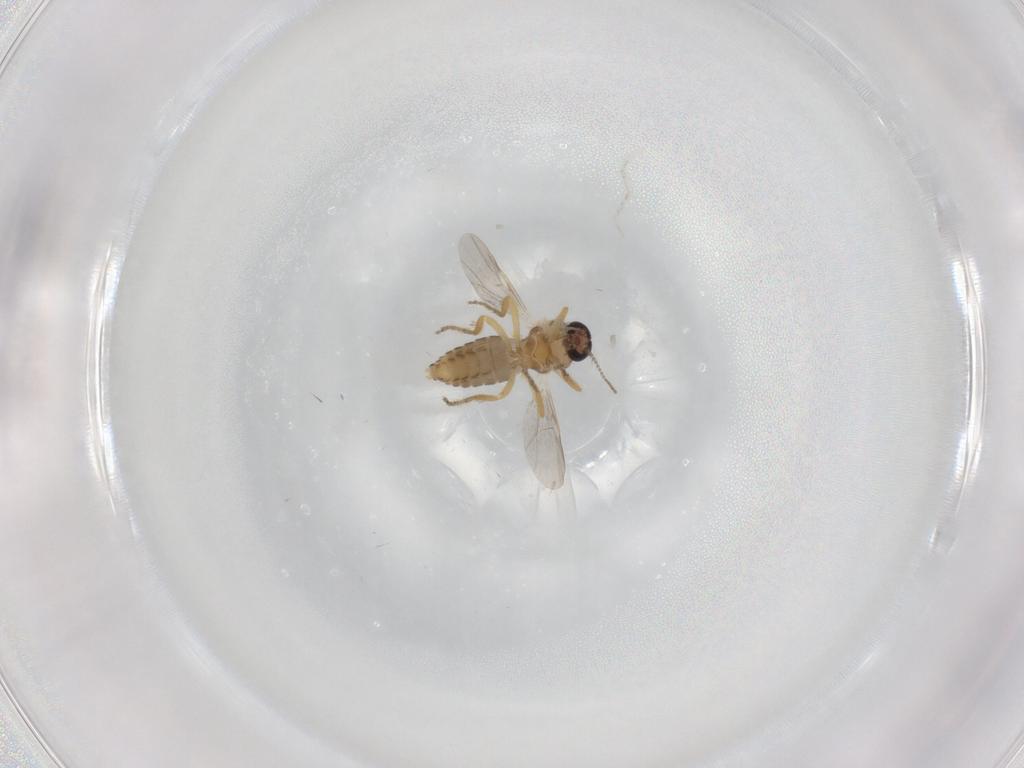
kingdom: Animalia
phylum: Arthropoda
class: Insecta
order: Diptera
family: Ceratopogonidae
